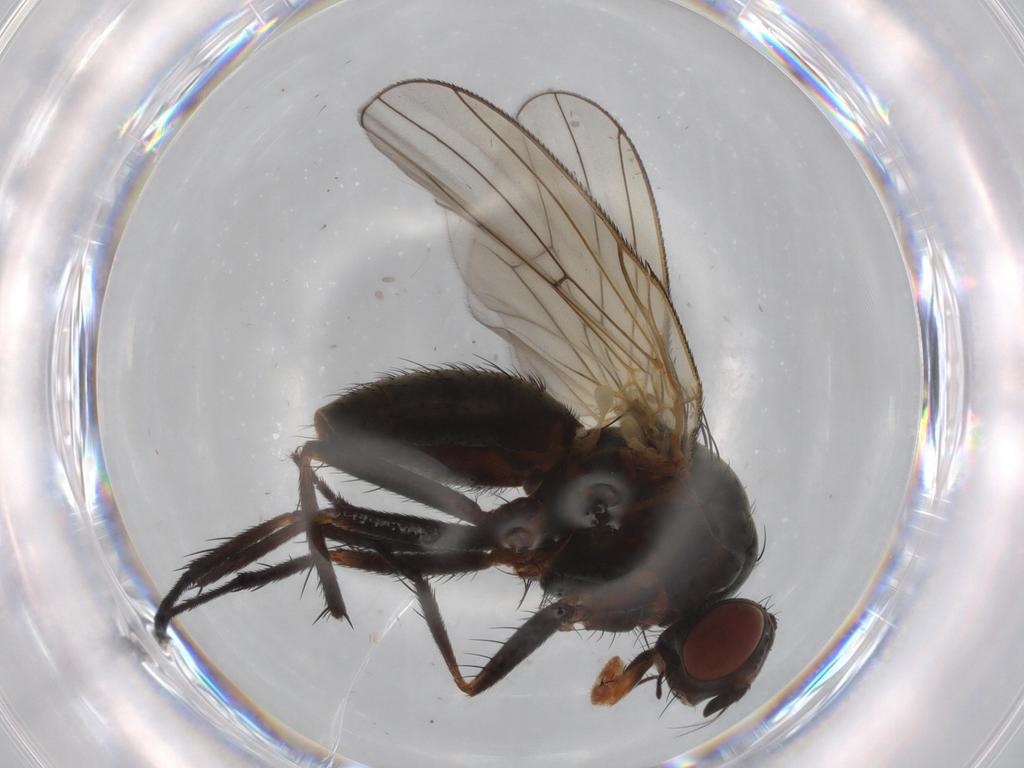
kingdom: Animalia
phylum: Arthropoda
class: Insecta
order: Diptera
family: Anthomyiidae
